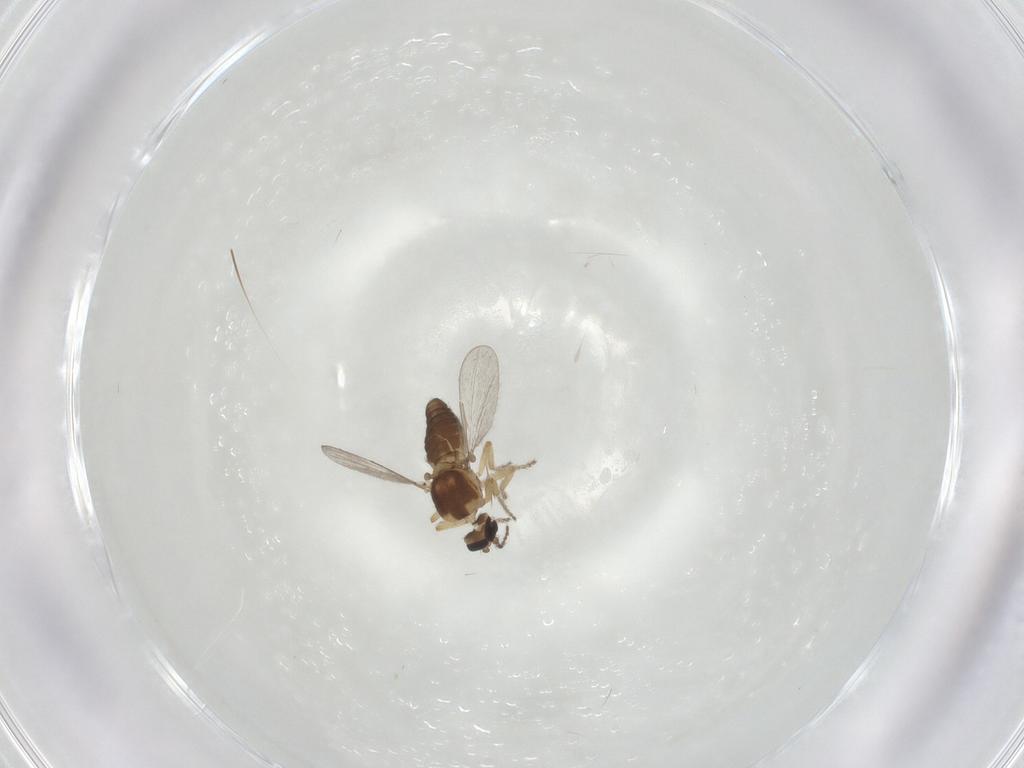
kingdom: Animalia
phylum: Arthropoda
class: Insecta
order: Diptera
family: Ceratopogonidae
